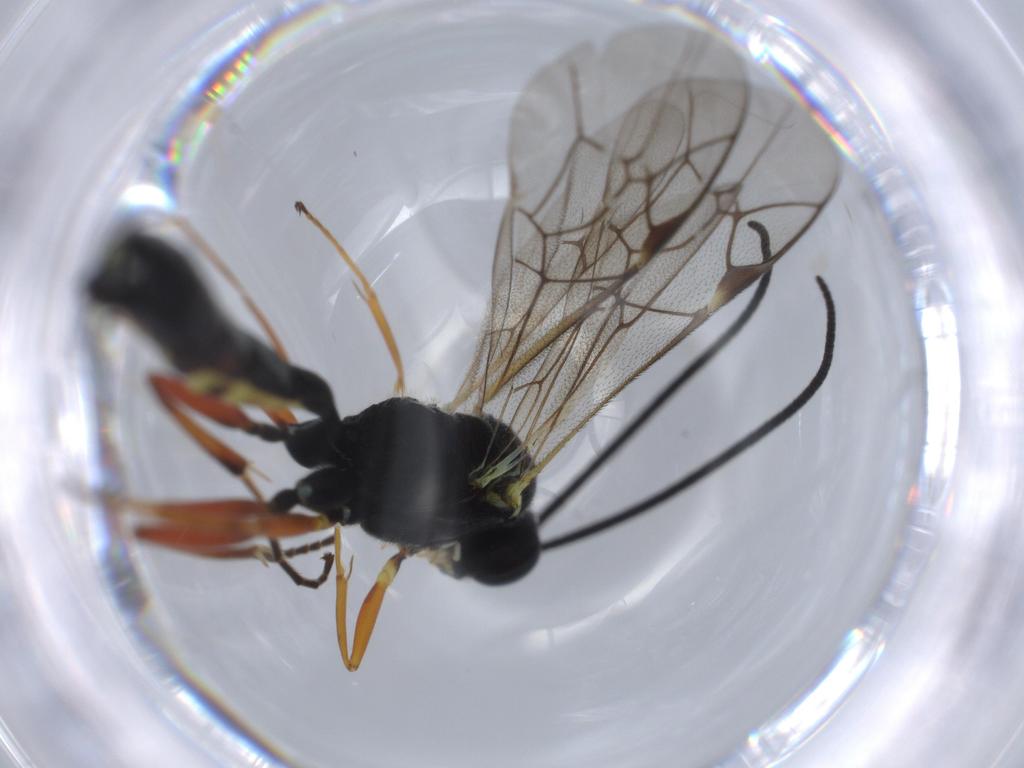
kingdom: Animalia
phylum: Arthropoda
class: Insecta
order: Hymenoptera
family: Ichneumonidae
